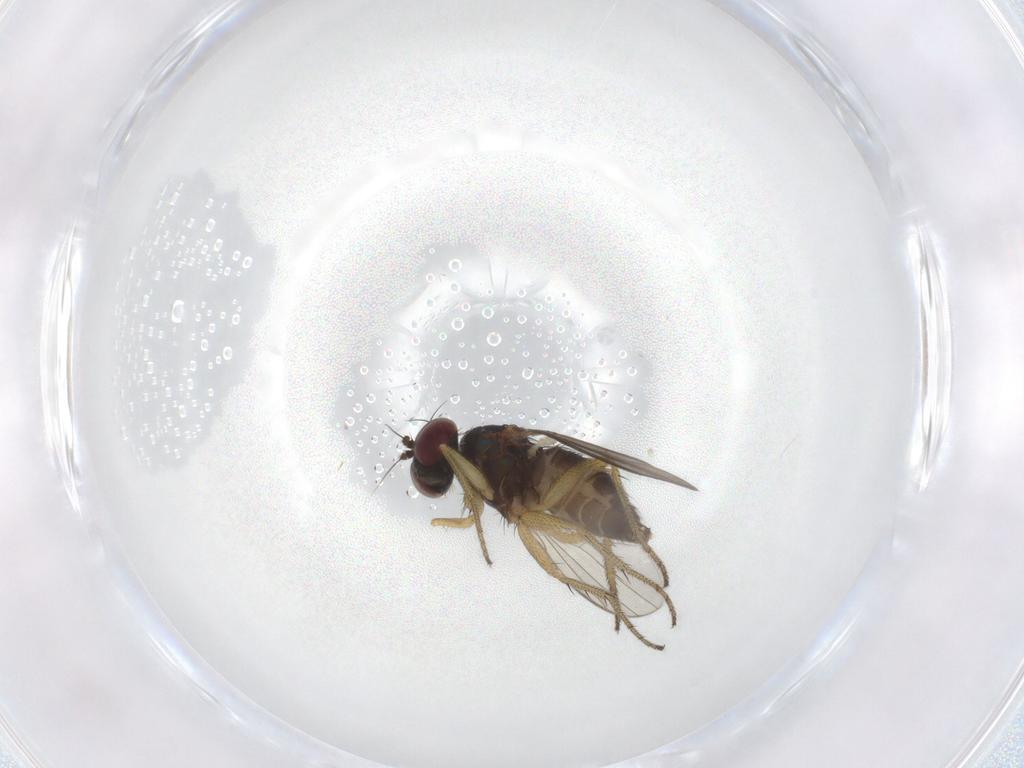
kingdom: Animalia
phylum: Arthropoda
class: Insecta
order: Diptera
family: Chironomidae
